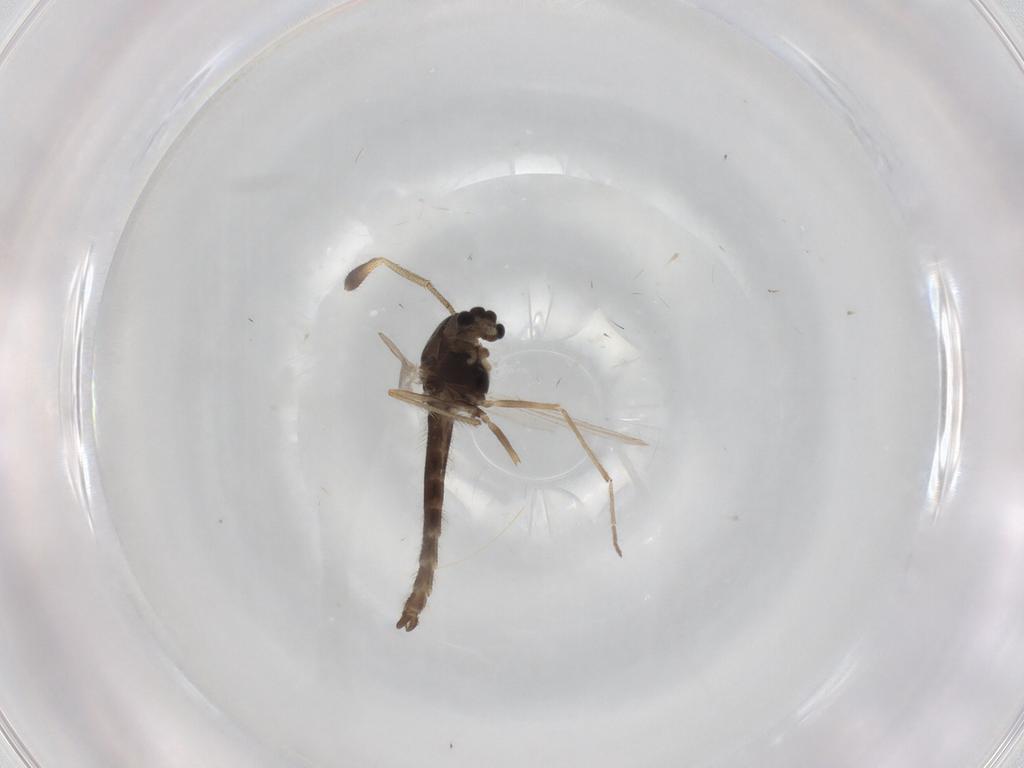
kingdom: Animalia
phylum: Arthropoda
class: Insecta
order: Diptera
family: Chironomidae
